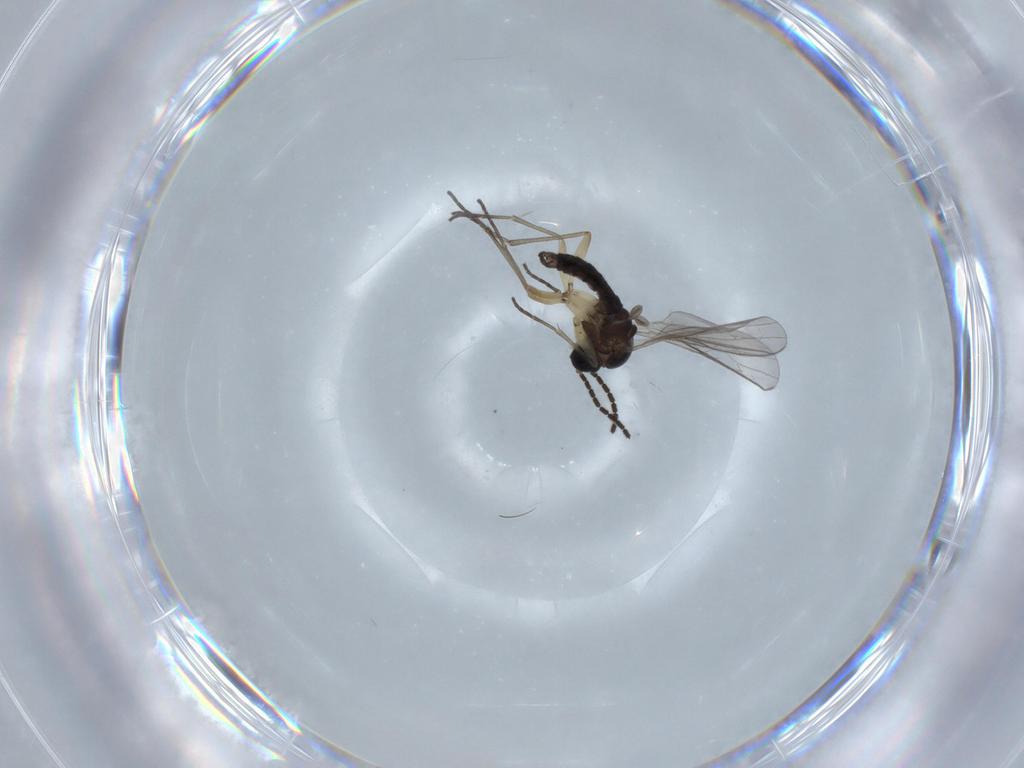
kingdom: Animalia
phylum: Arthropoda
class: Insecta
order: Diptera
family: Sciaridae
